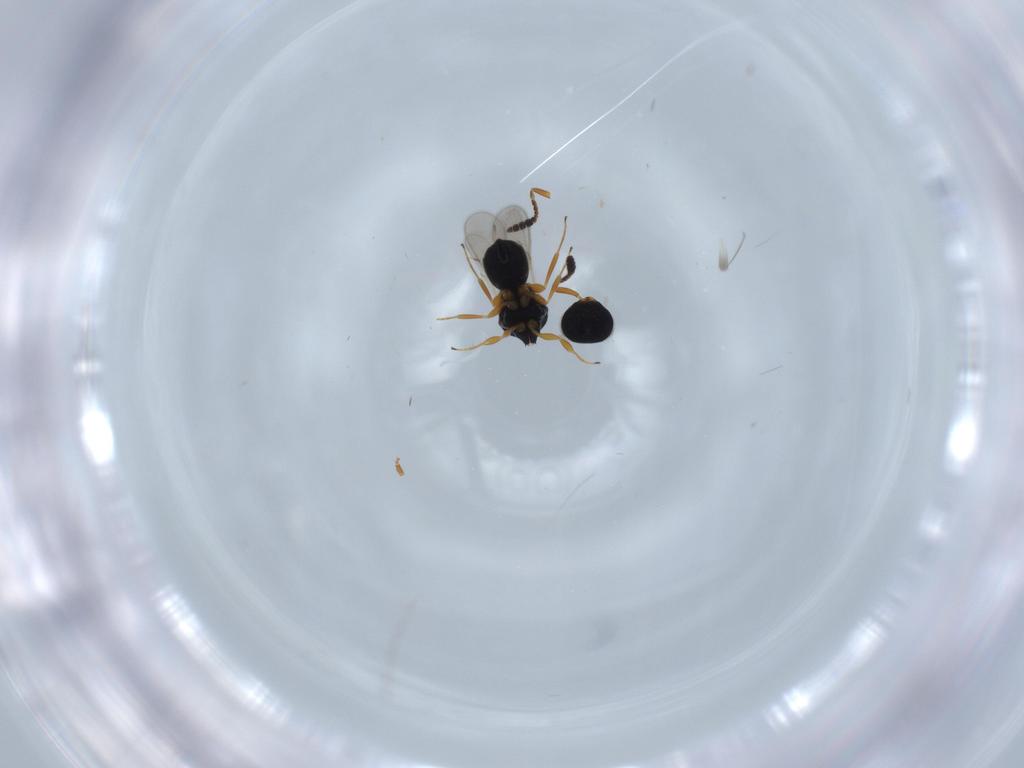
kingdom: Animalia
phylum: Arthropoda
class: Insecta
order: Hymenoptera
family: Scelionidae
